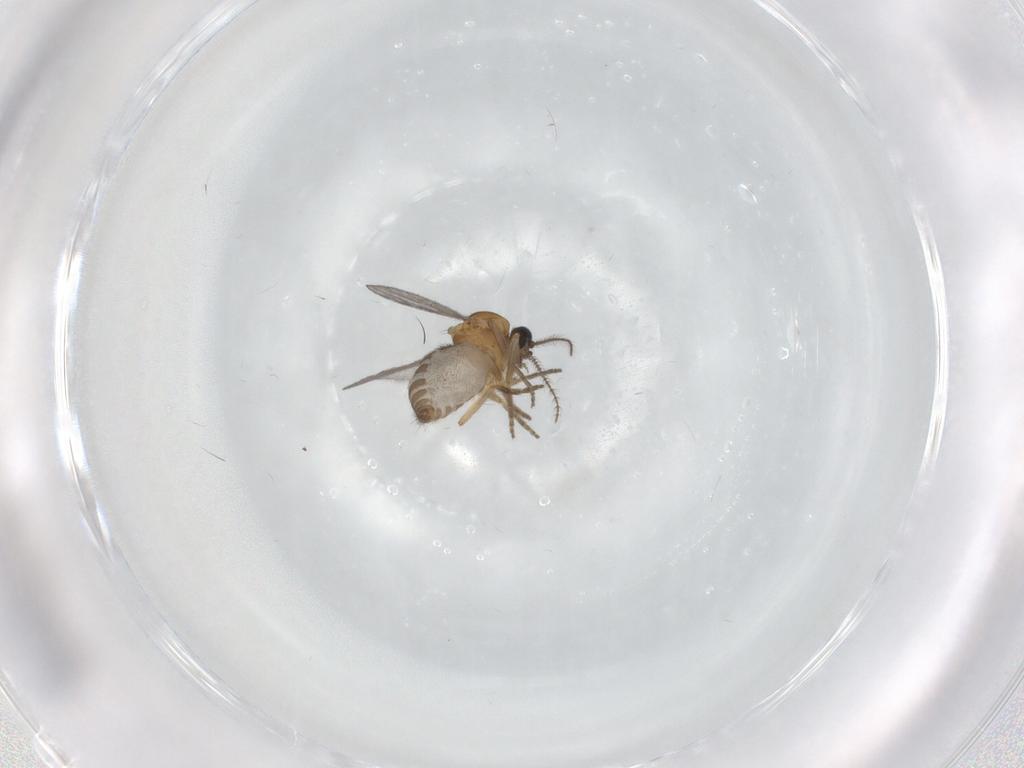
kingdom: Animalia
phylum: Arthropoda
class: Insecta
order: Diptera
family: Ceratopogonidae
